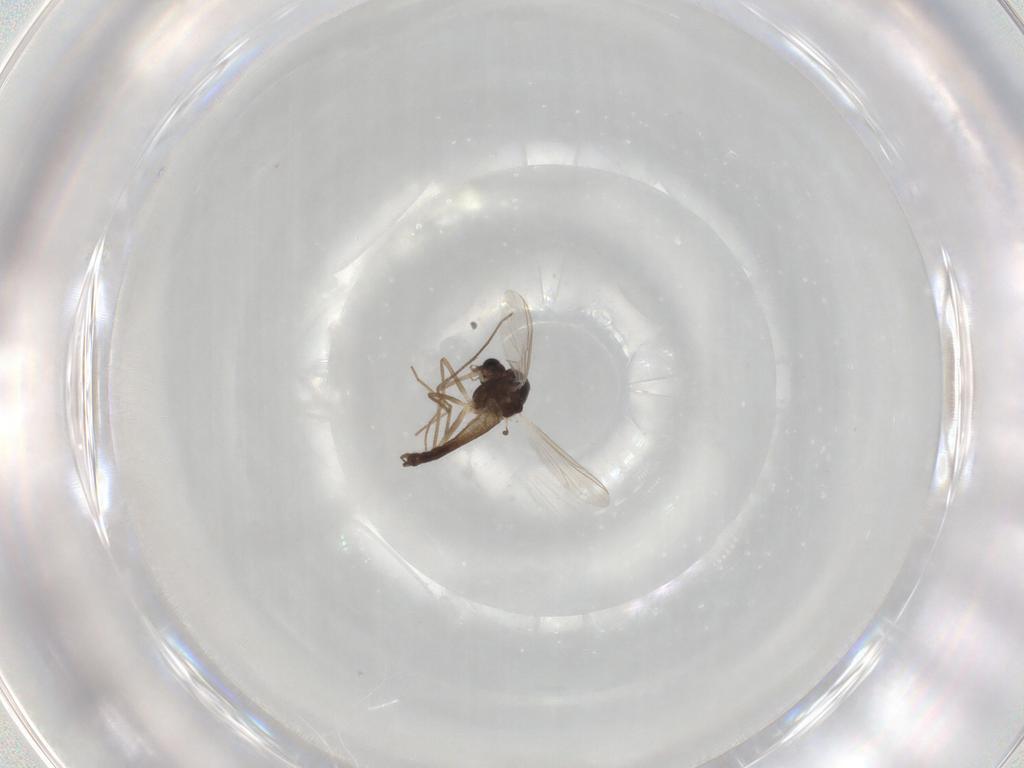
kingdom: Animalia
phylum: Arthropoda
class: Insecta
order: Diptera
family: Chironomidae
